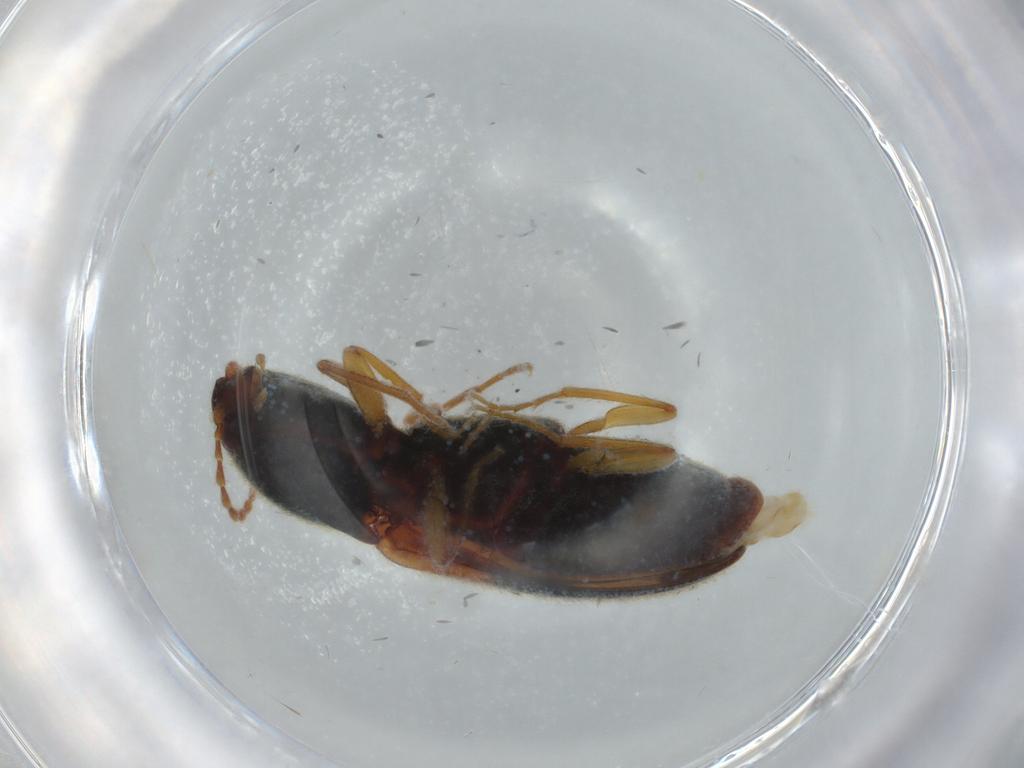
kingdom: Animalia
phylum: Arthropoda
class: Insecta
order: Coleoptera
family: Elateridae
